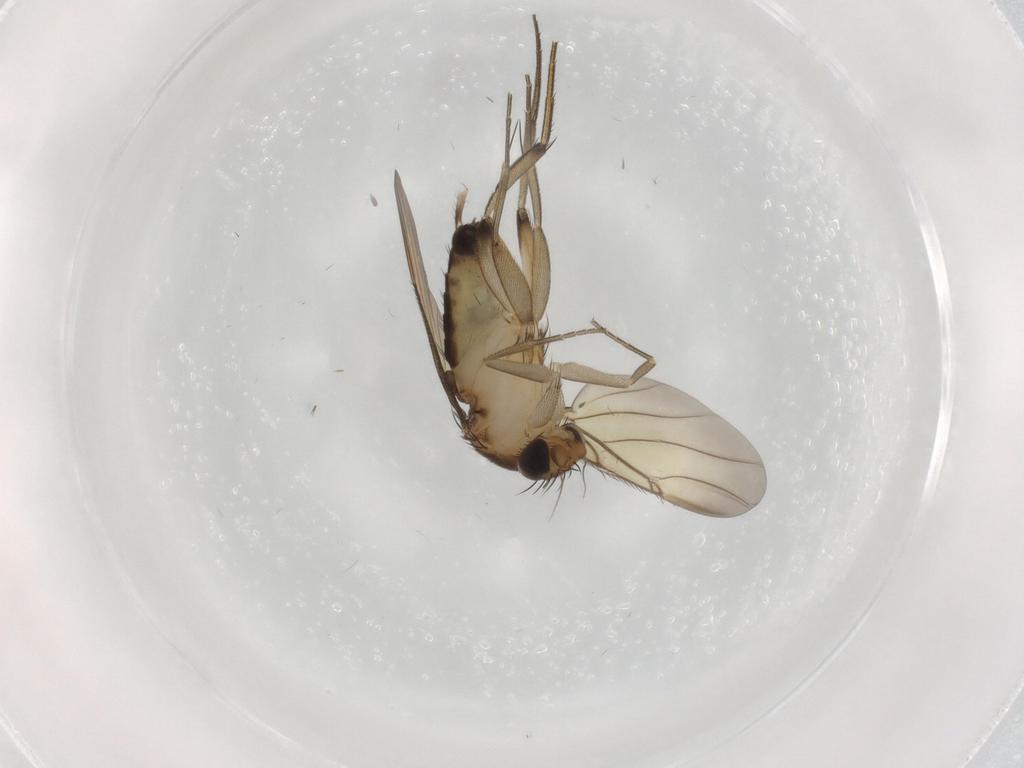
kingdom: Animalia
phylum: Arthropoda
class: Insecta
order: Diptera
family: Phoridae
